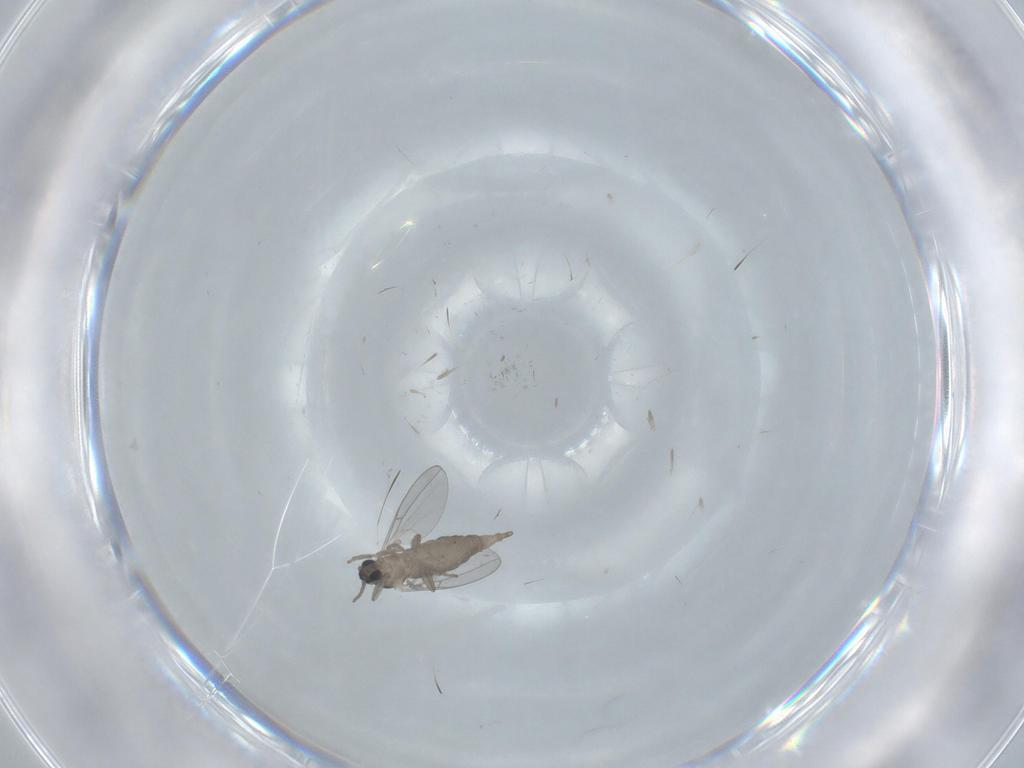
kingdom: Animalia
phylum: Arthropoda
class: Insecta
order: Diptera
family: Cecidomyiidae
